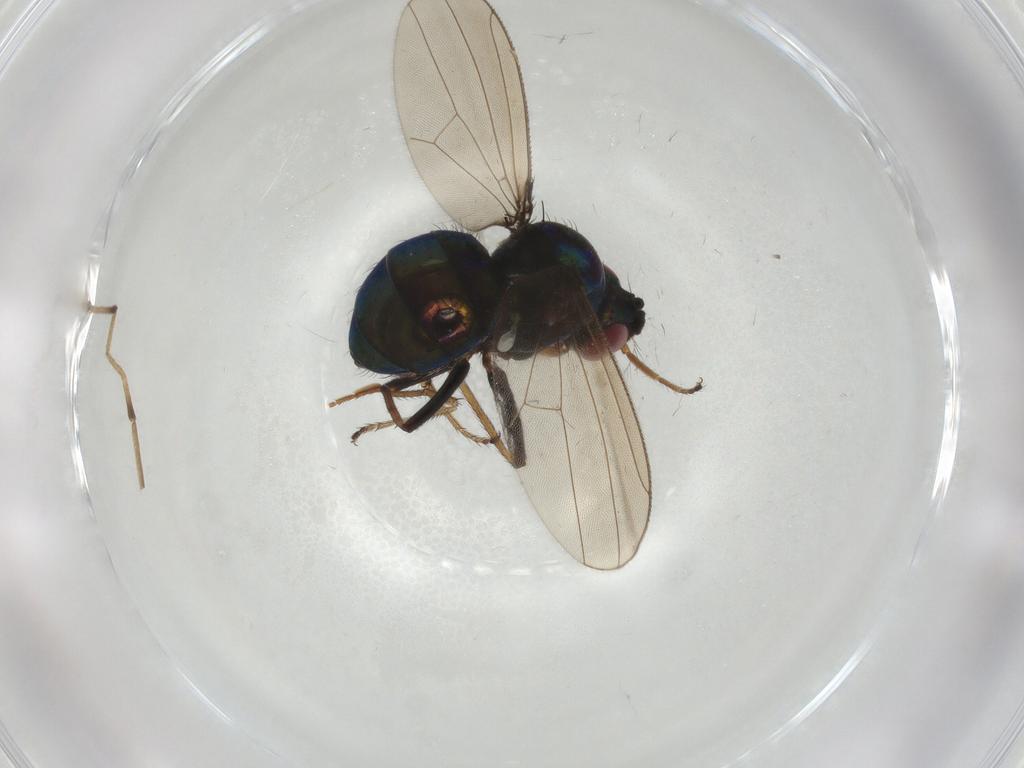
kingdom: Animalia
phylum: Arthropoda
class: Insecta
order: Diptera
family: Ephydridae
